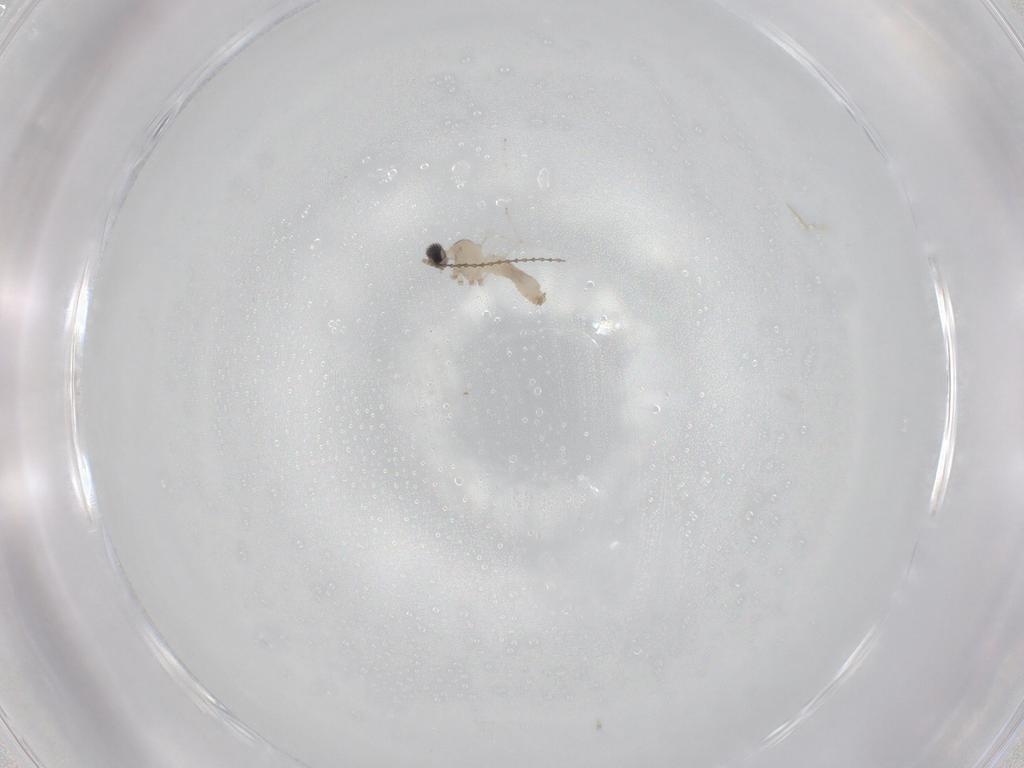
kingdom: Animalia
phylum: Arthropoda
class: Insecta
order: Diptera
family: Cecidomyiidae
